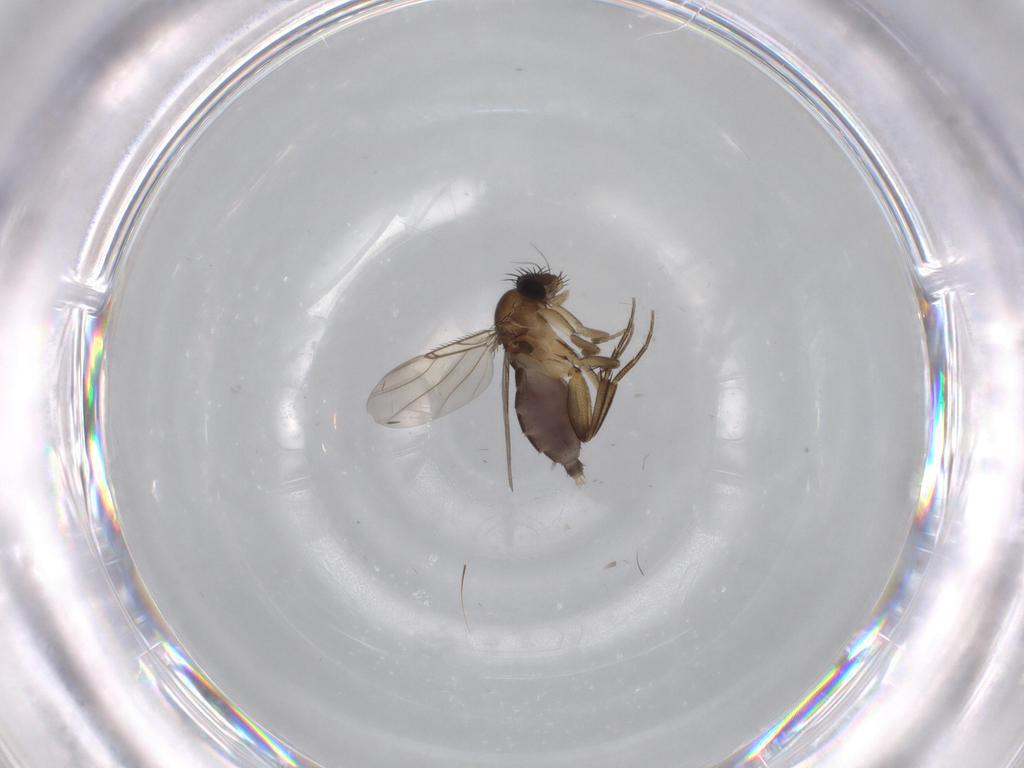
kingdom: Animalia
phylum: Arthropoda
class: Insecta
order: Diptera
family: Phoridae
